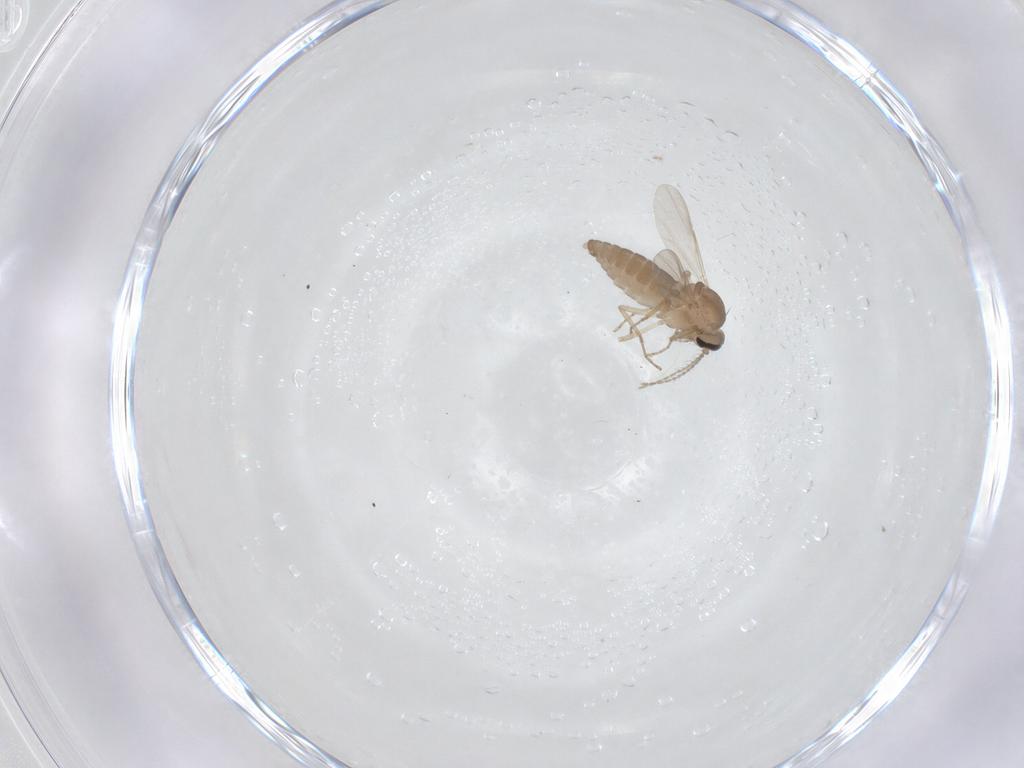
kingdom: Animalia
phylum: Arthropoda
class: Insecta
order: Diptera
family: Ceratopogonidae
